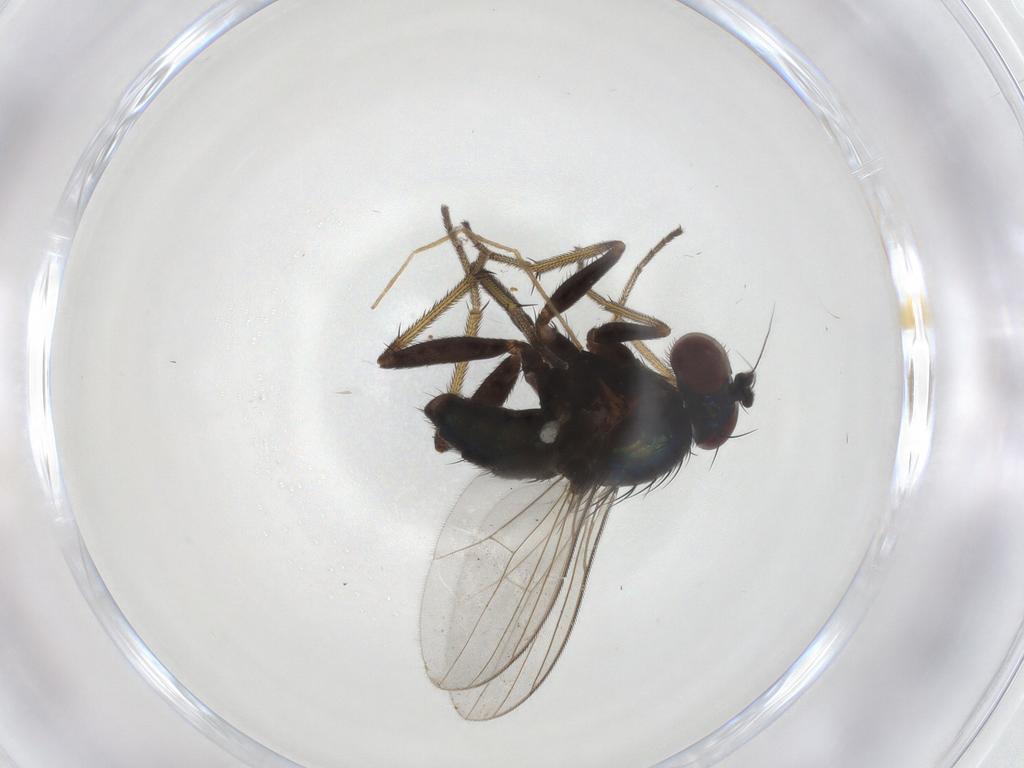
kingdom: Animalia
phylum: Arthropoda
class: Insecta
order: Diptera
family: Dolichopodidae
